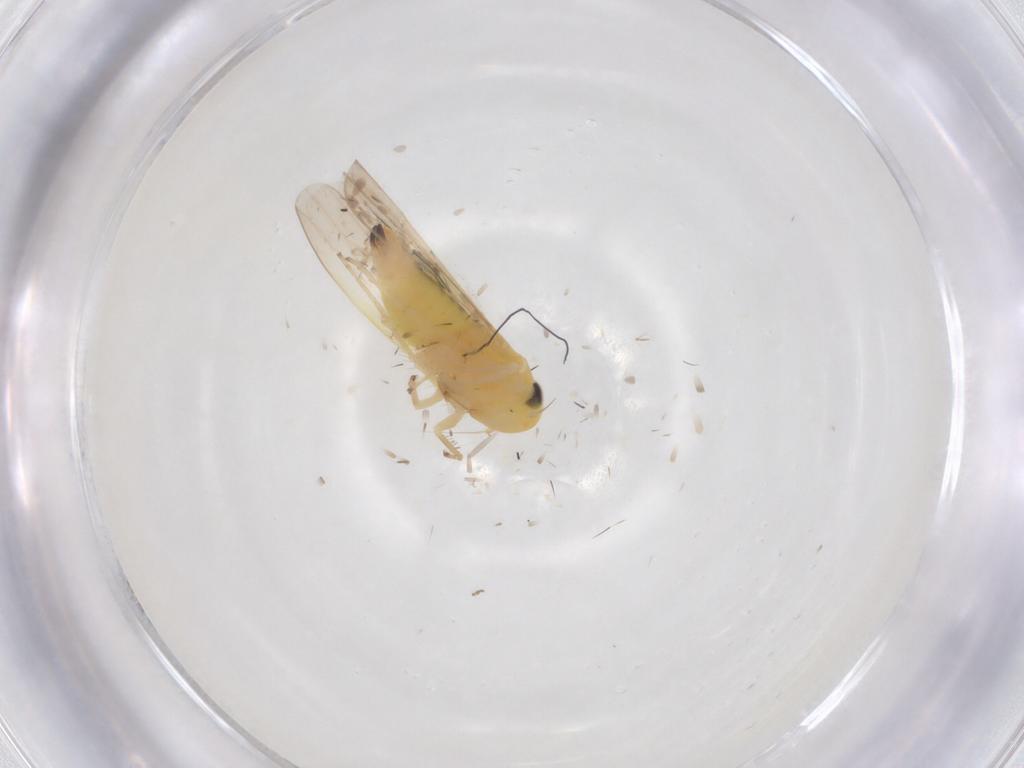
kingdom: Animalia
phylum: Arthropoda
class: Insecta
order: Hemiptera
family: Cicadellidae
